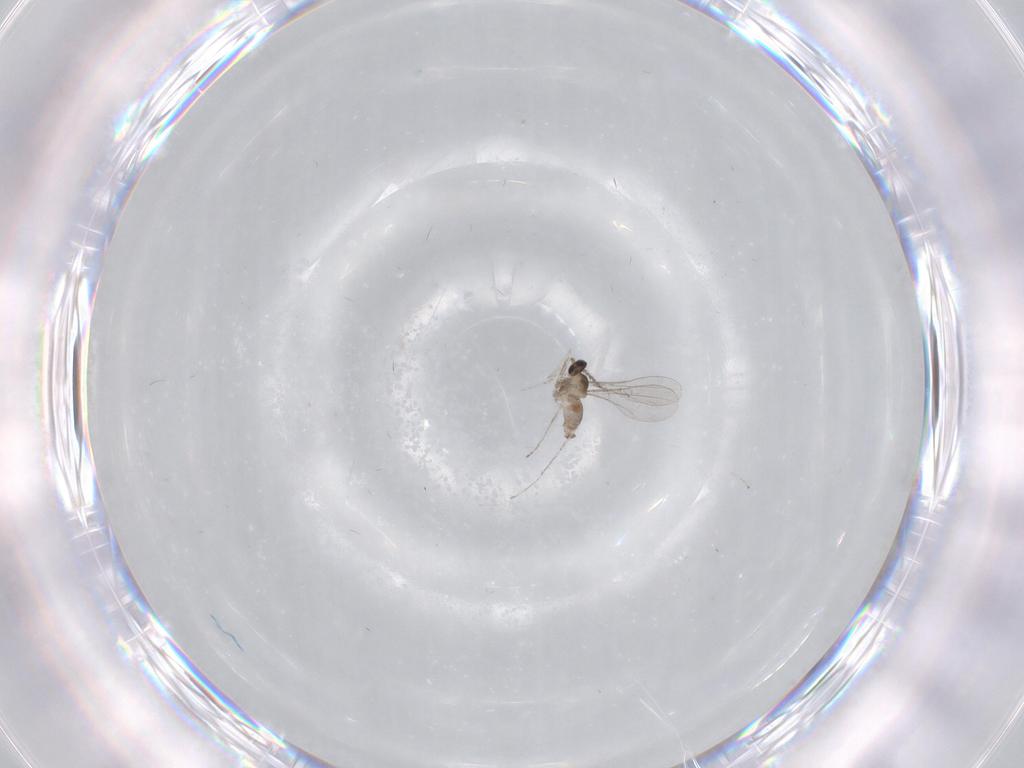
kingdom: Animalia
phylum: Arthropoda
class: Insecta
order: Diptera
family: Cecidomyiidae
